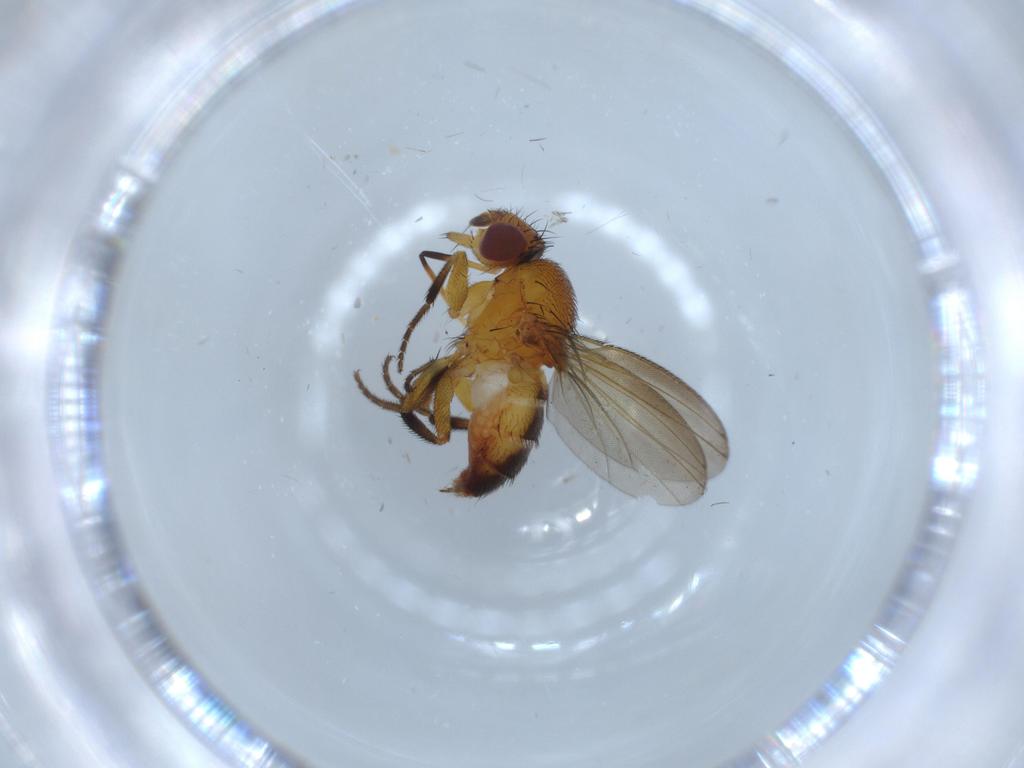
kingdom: Animalia
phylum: Arthropoda
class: Insecta
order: Diptera
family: Milichiidae
